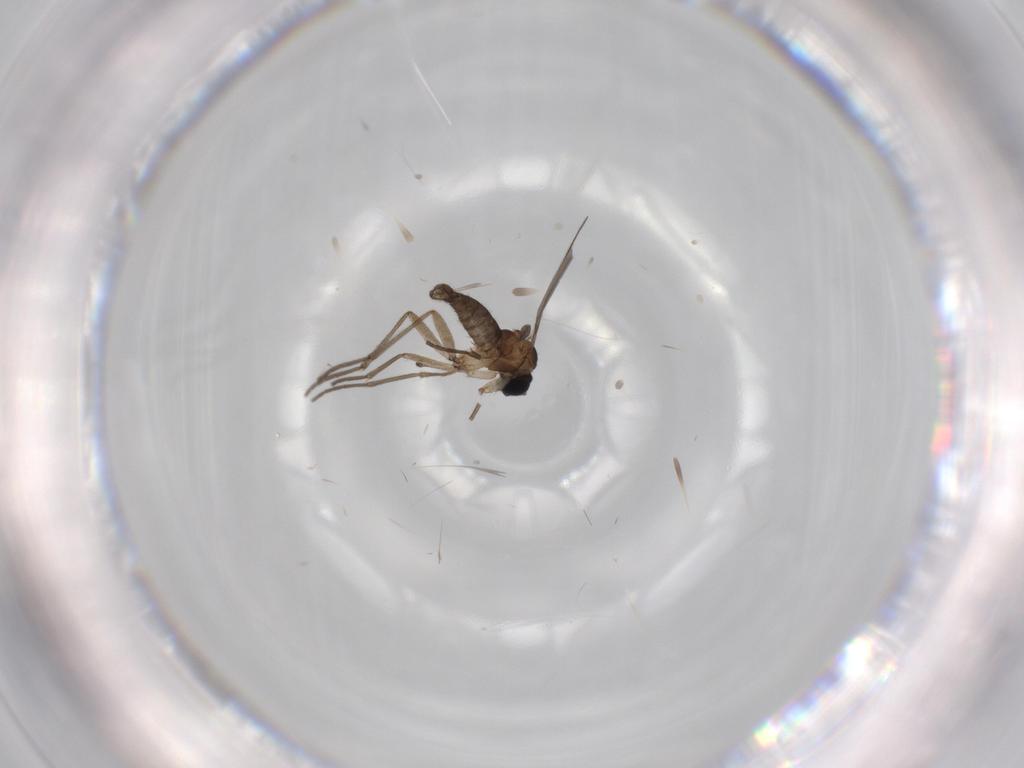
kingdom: Animalia
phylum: Arthropoda
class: Insecta
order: Diptera
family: Sciaridae
